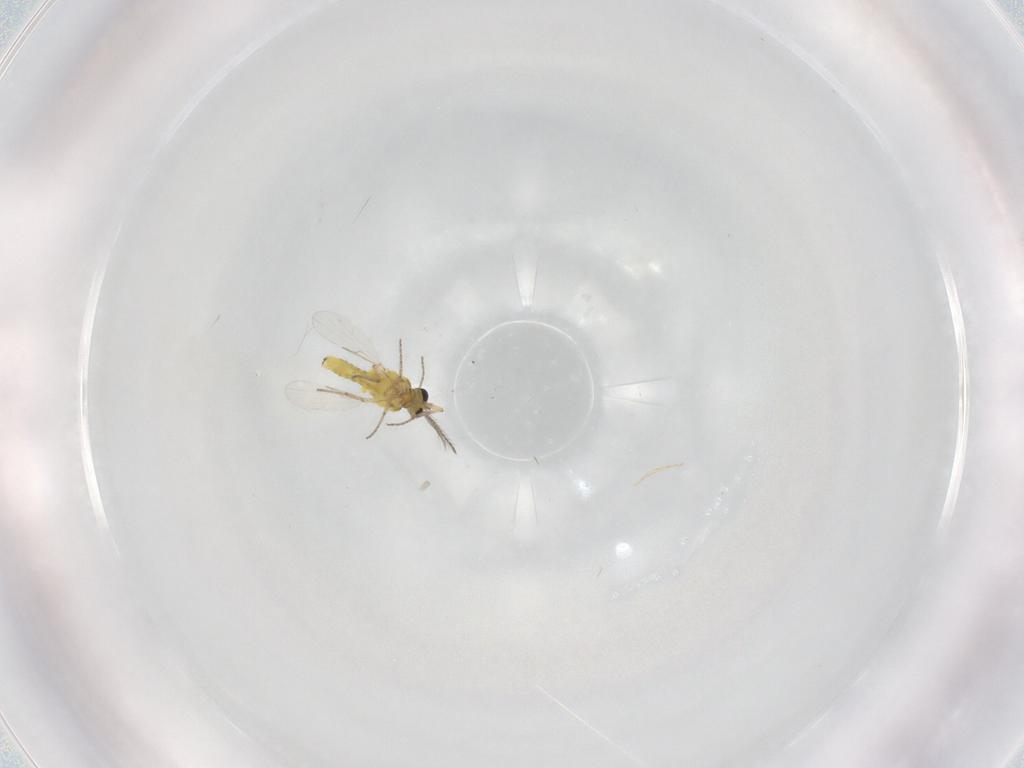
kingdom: Animalia
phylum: Arthropoda
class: Insecta
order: Diptera
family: Ceratopogonidae
